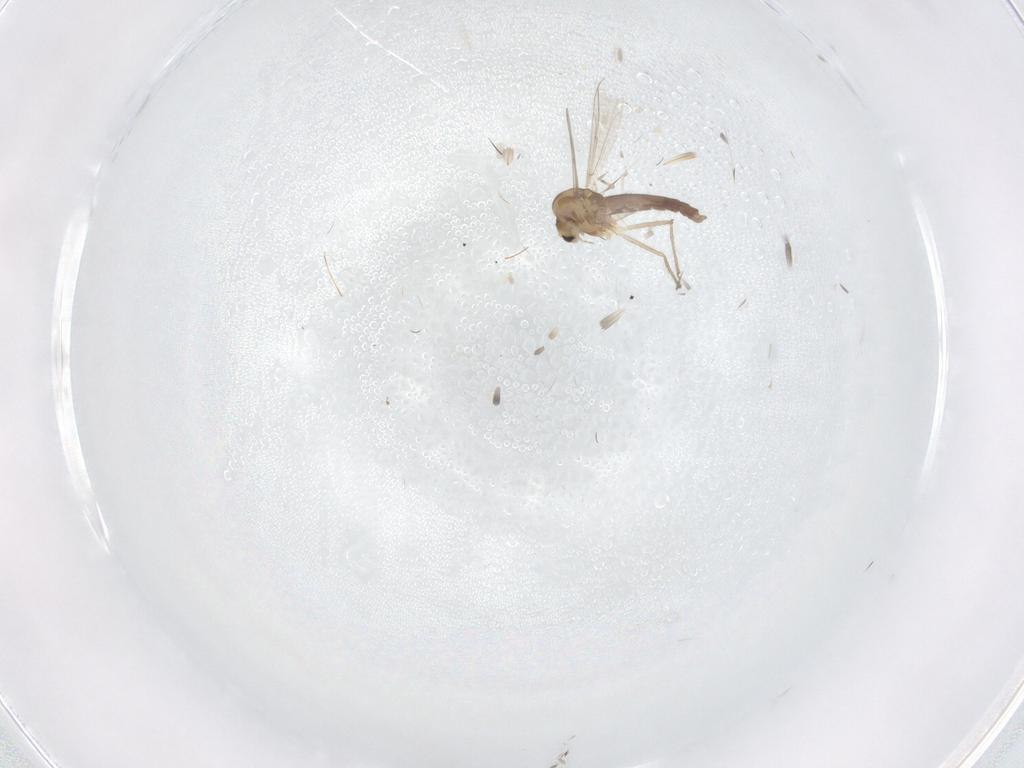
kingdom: Animalia
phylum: Arthropoda
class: Insecta
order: Diptera
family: Chironomidae
